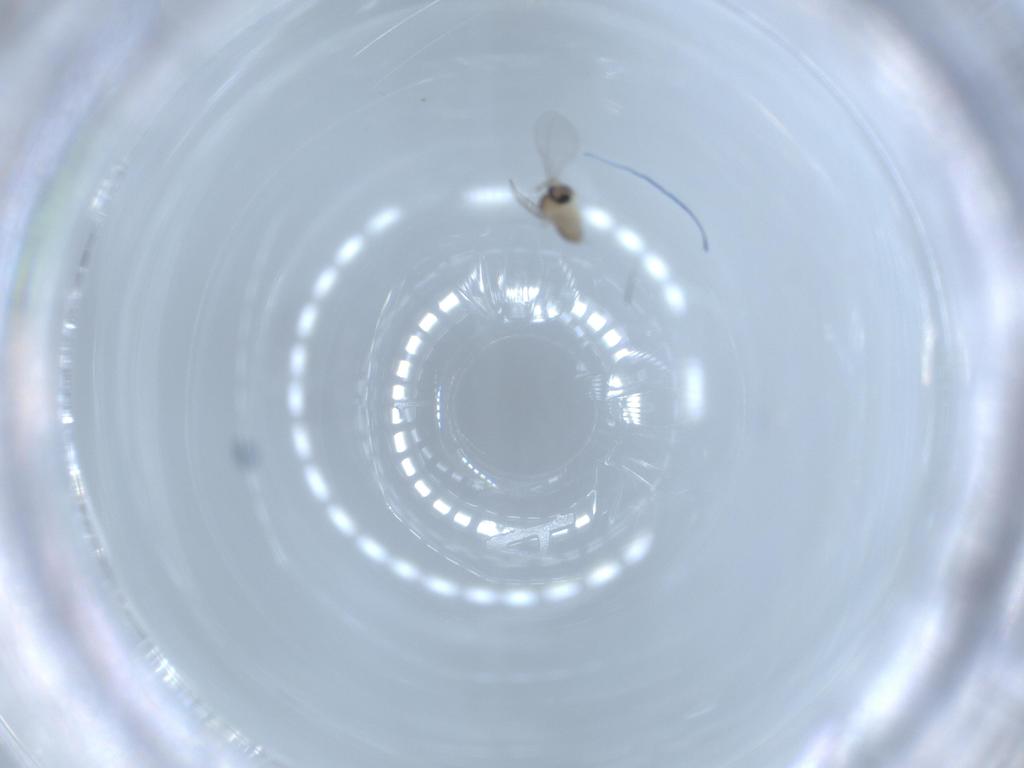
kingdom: Animalia
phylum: Arthropoda
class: Insecta
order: Diptera
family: Cecidomyiidae
